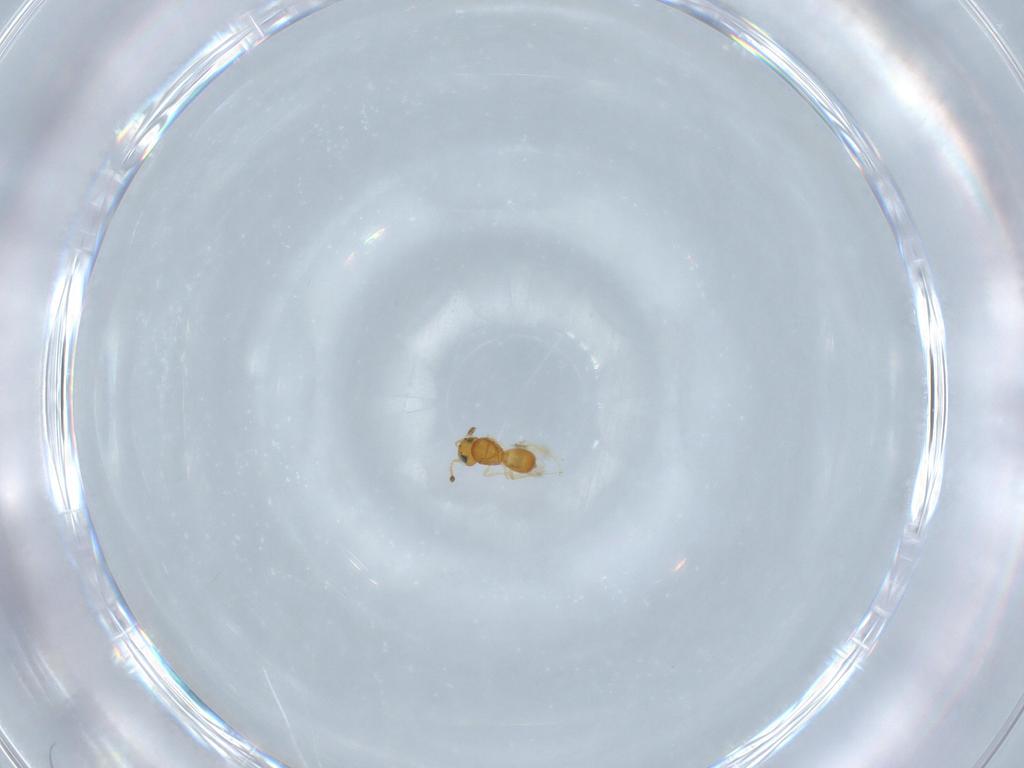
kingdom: Animalia
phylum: Arthropoda
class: Insecta
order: Hymenoptera
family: Scelionidae
